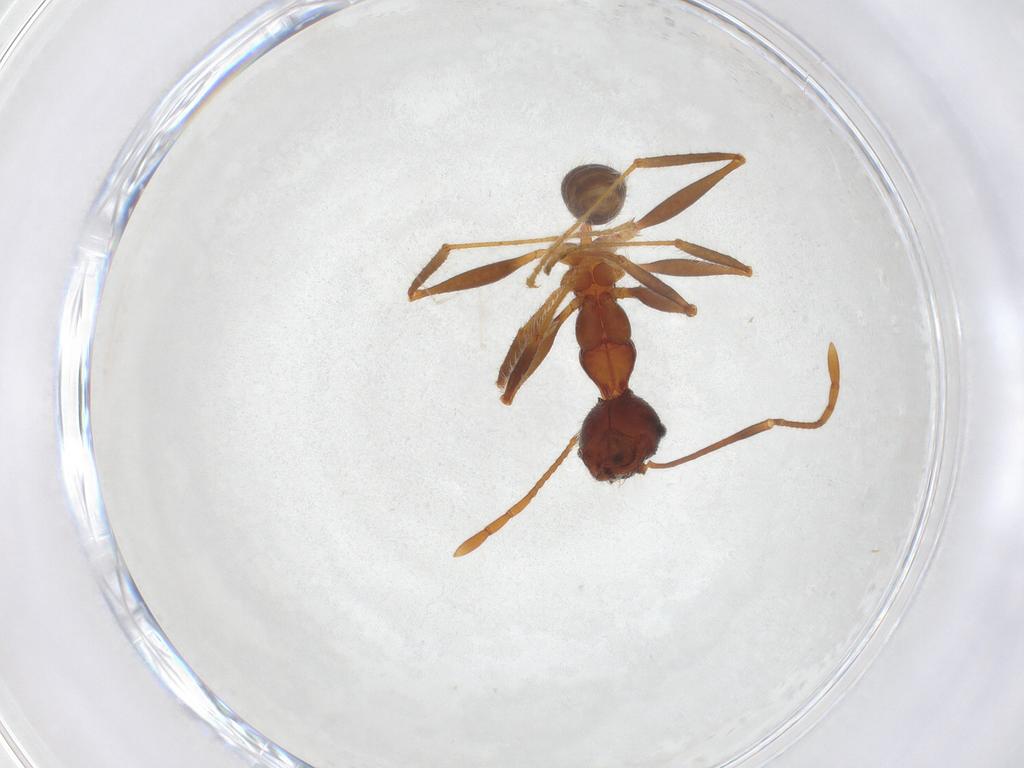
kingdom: Animalia
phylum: Arthropoda
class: Insecta
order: Hymenoptera
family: Formicidae
